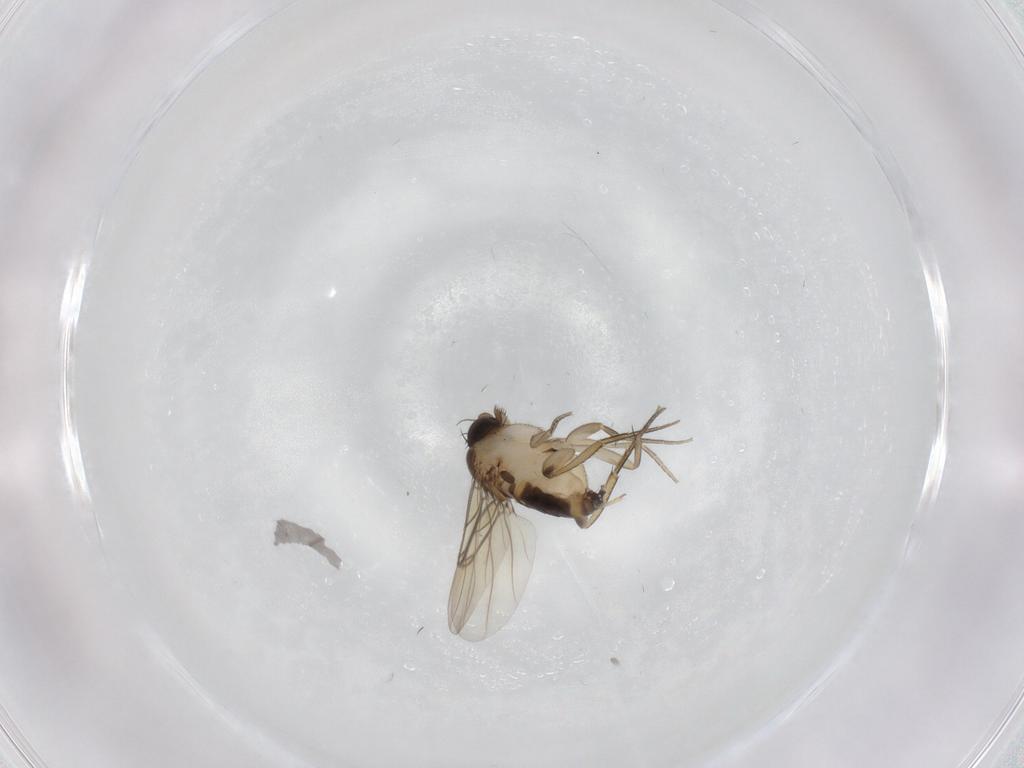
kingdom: Animalia
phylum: Arthropoda
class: Insecta
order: Diptera
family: Phoridae
